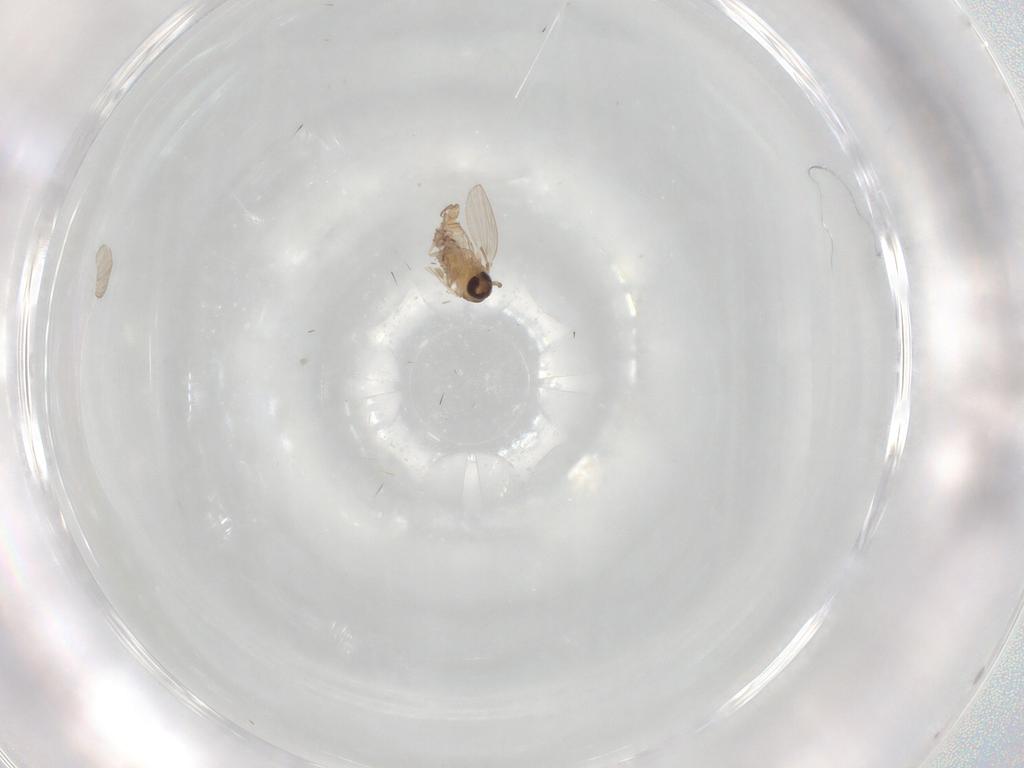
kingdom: Animalia
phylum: Arthropoda
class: Insecta
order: Diptera
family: Psychodidae
